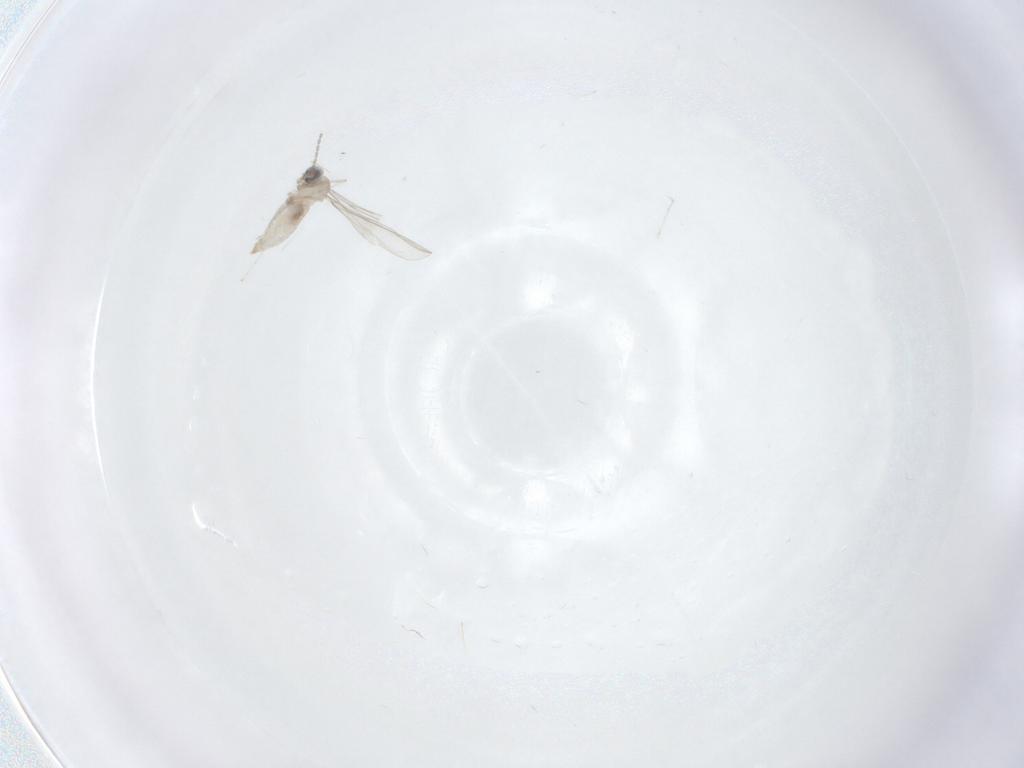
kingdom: Animalia
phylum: Arthropoda
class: Insecta
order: Diptera
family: Cecidomyiidae
